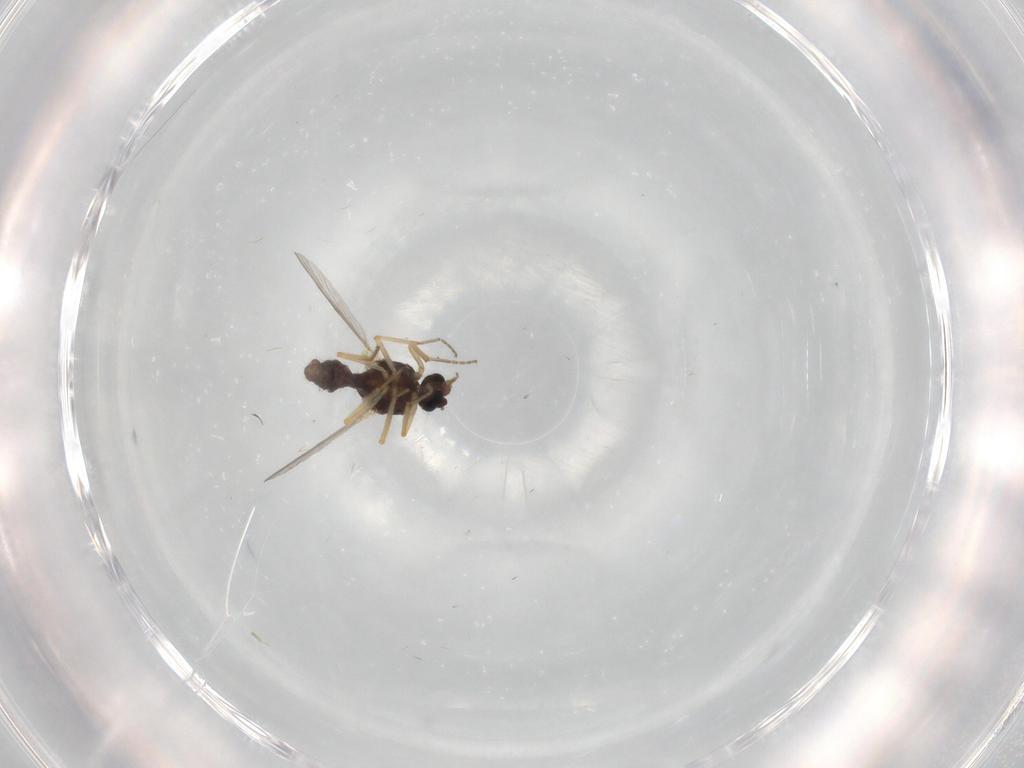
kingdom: Animalia
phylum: Arthropoda
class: Insecta
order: Diptera
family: Ceratopogonidae
